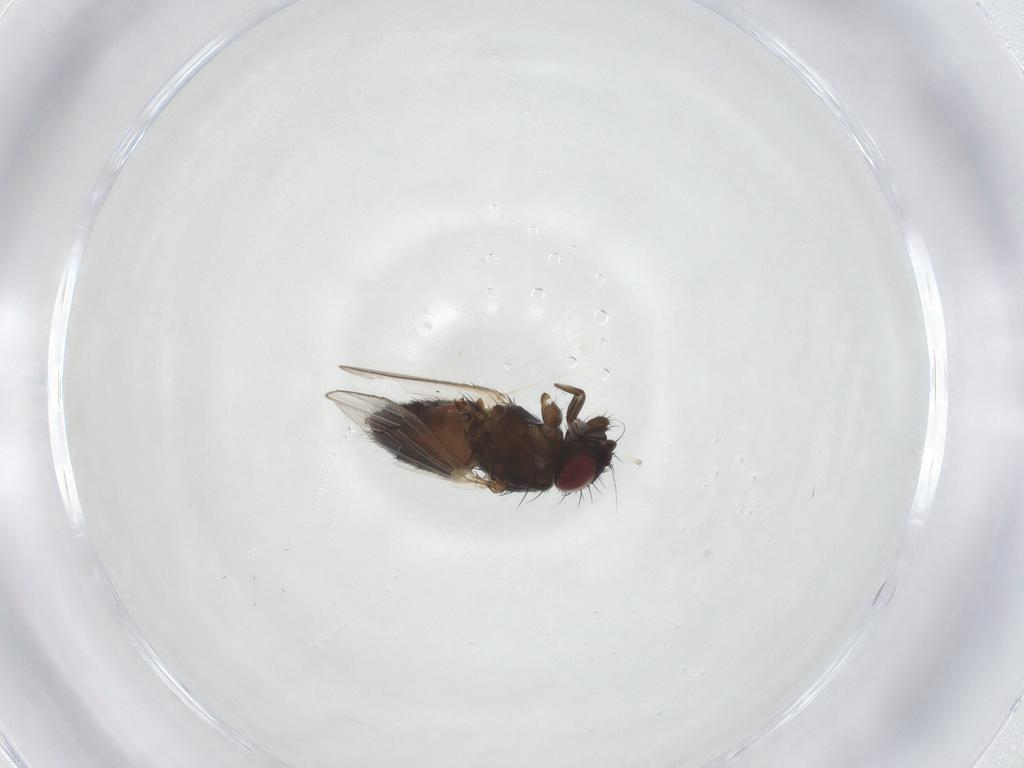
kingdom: Animalia
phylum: Arthropoda
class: Insecta
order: Diptera
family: Milichiidae
